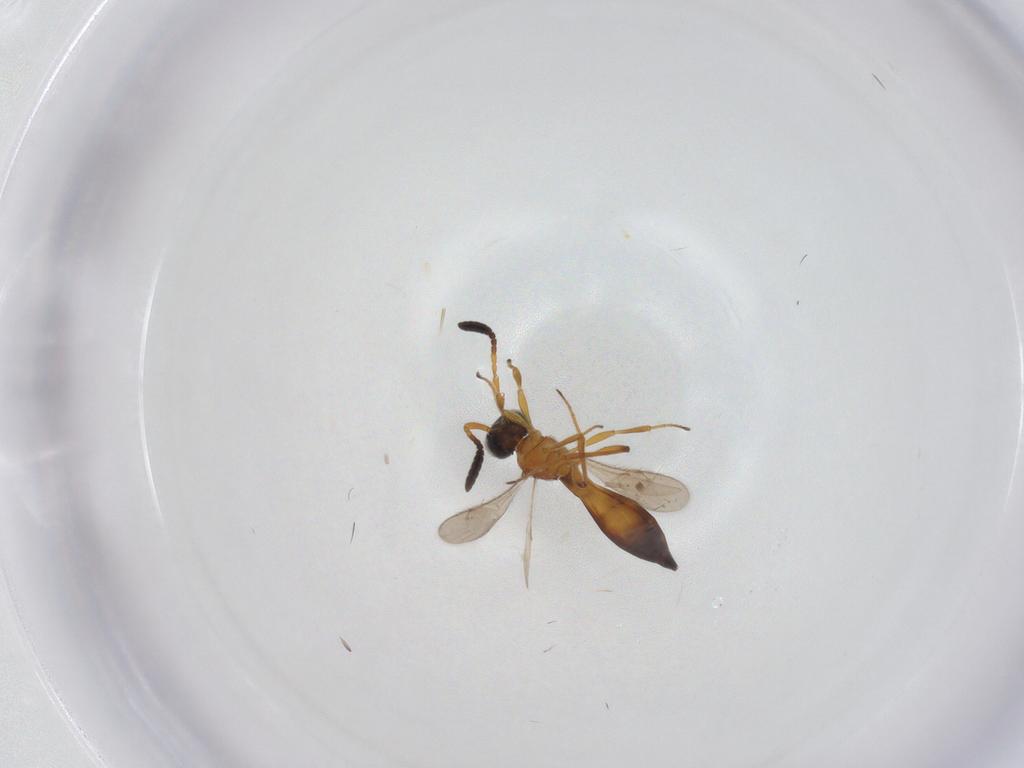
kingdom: Animalia
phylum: Arthropoda
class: Insecta
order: Hymenoptera
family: Scelionidae
